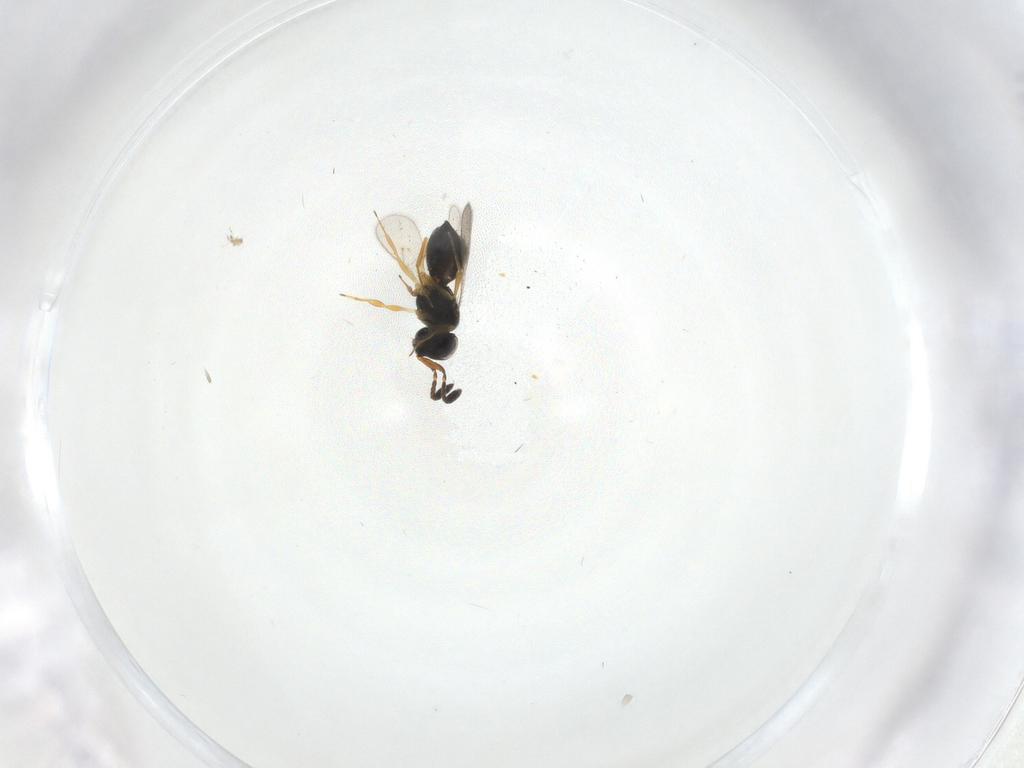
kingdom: Animalia
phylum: Arthropoda
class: Insecta
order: Hymenoptera
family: Scelionidae
